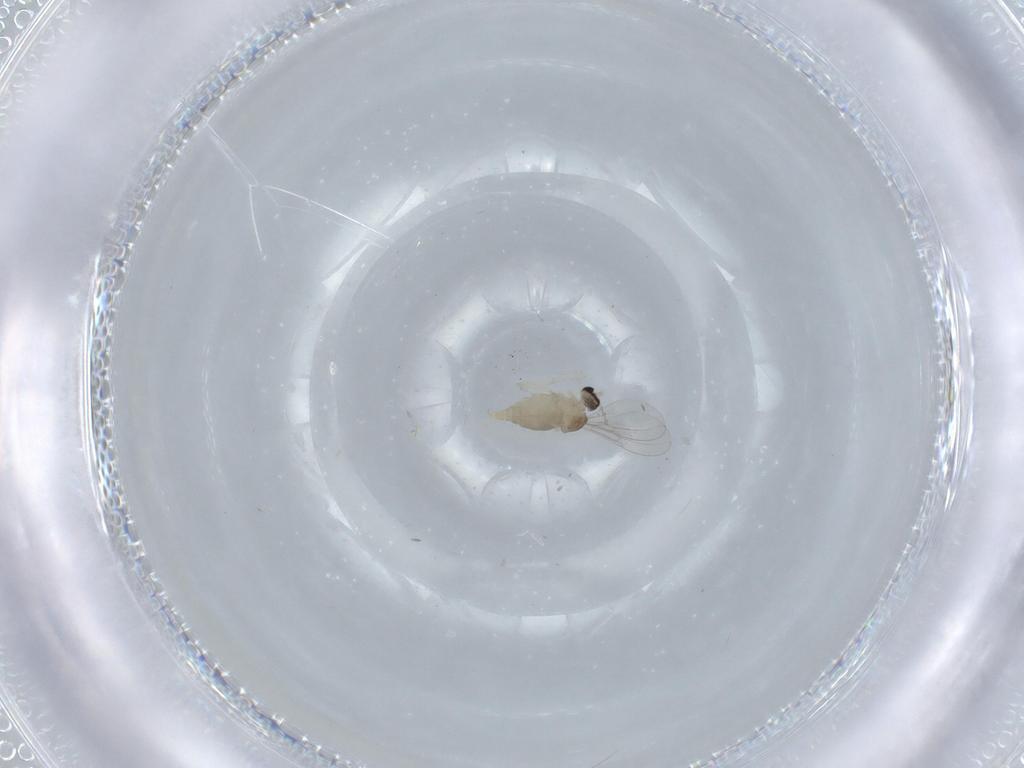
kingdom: Animalia
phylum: Arthropoda
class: Insecta
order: Diptera
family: Cecidomyiidae
